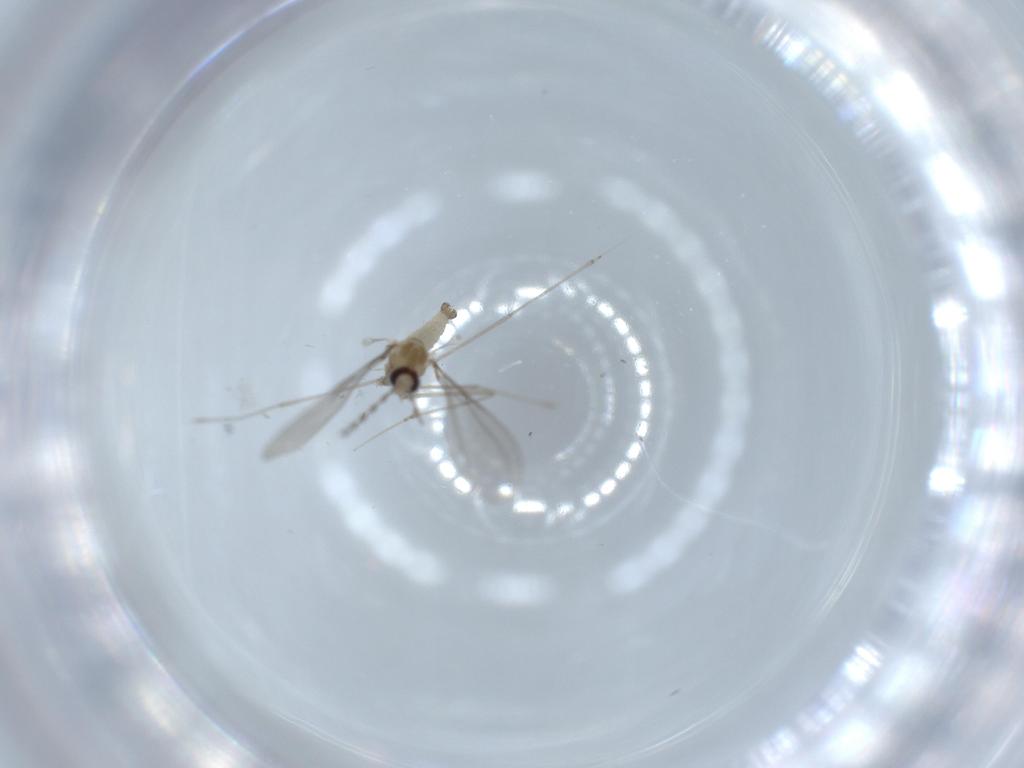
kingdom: Animalia
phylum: Arthropoda
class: Insecta
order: Diptera
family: Cecidomyiidae
